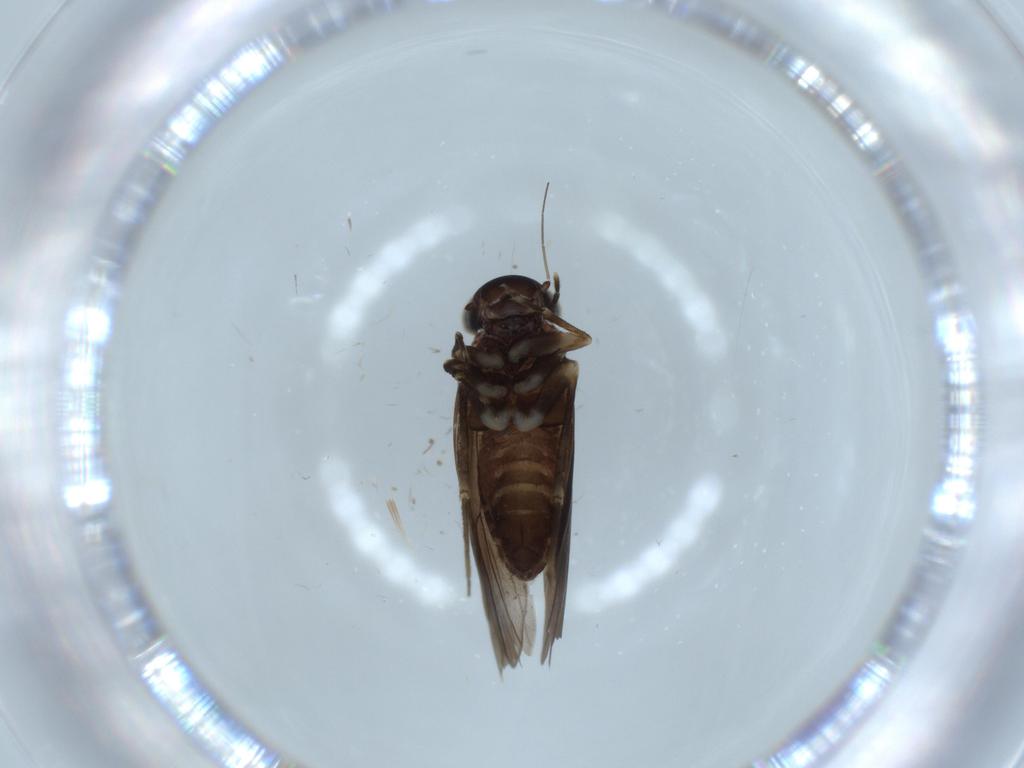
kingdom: Animalia
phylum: Arthropoda
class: Insecta
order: Psocodea
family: Amphientomidae
